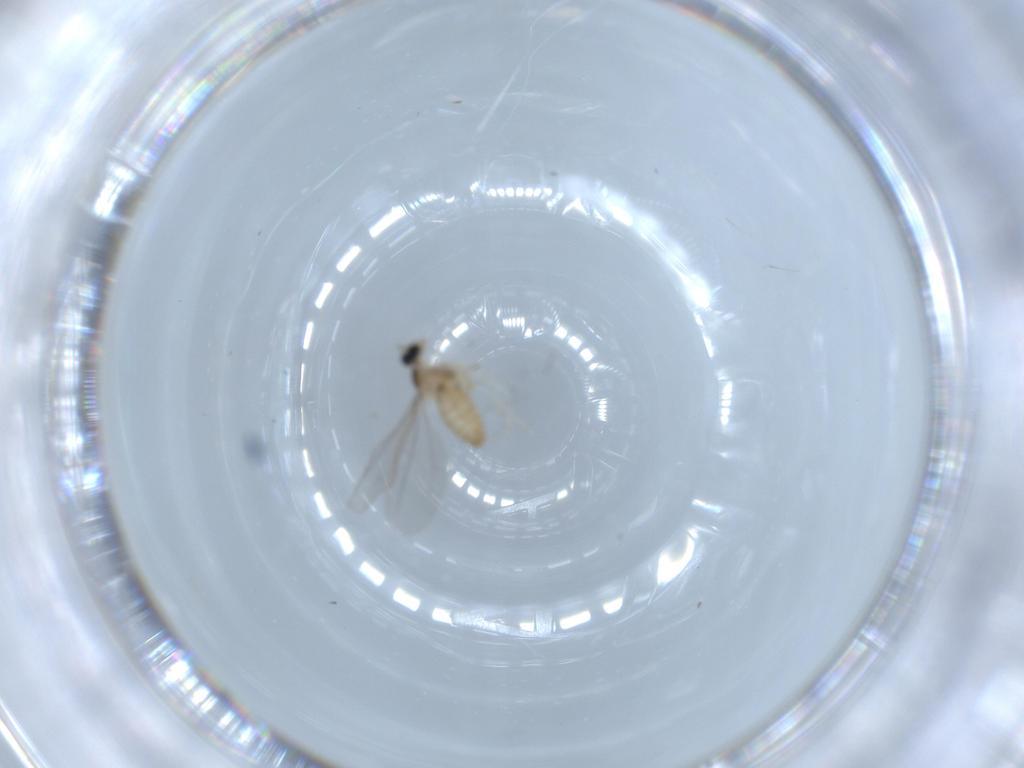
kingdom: Animalia
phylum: Arthropoda
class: Insecta
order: Diptera
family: Cecidomyiidae
